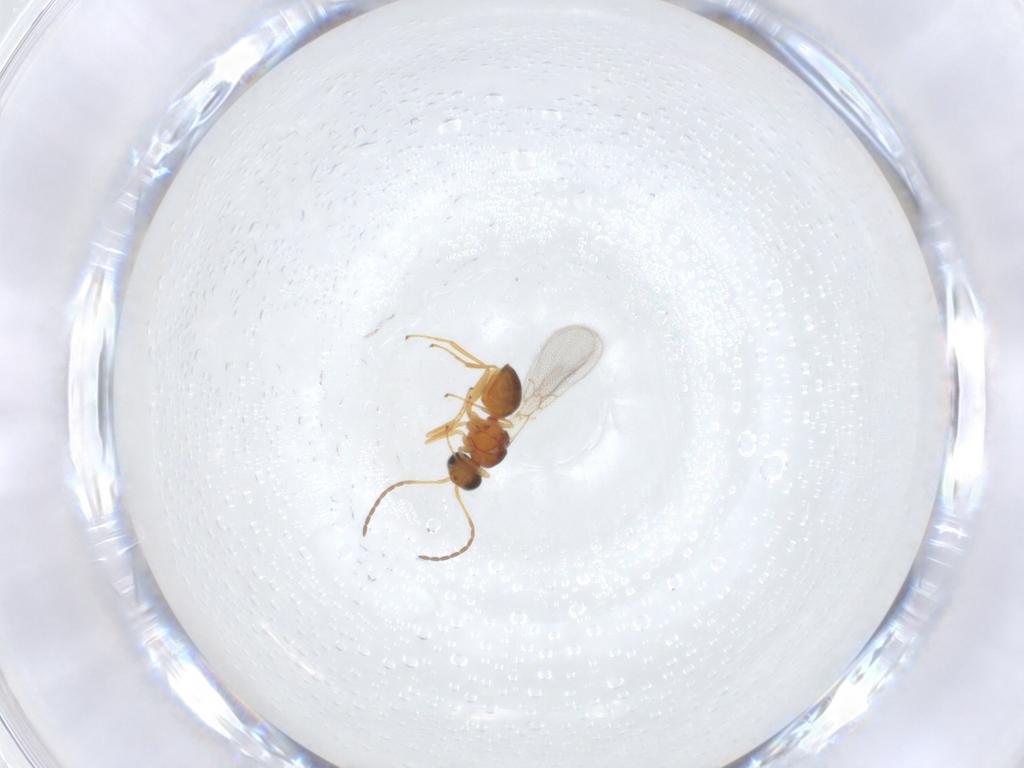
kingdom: Animalia
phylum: Arthropoda
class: Insecta
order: Hymenoptera
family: Figitidae
